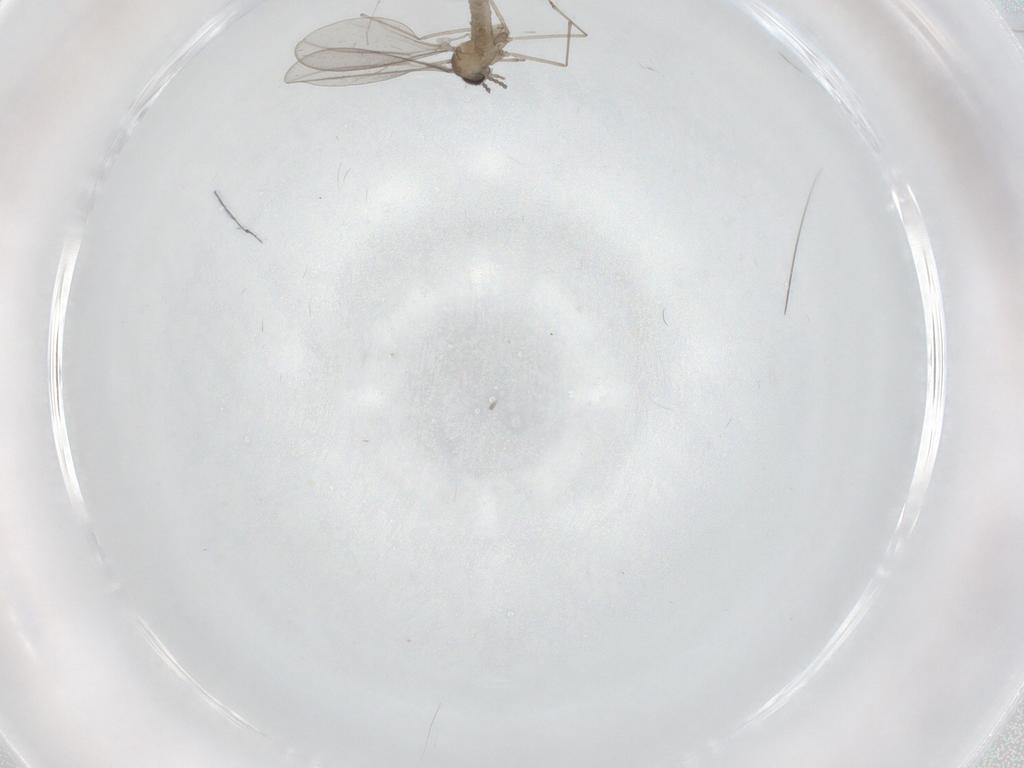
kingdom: Animalia
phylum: Arthropoda
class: Insecta
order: Diptera
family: Cecidomyiidae
